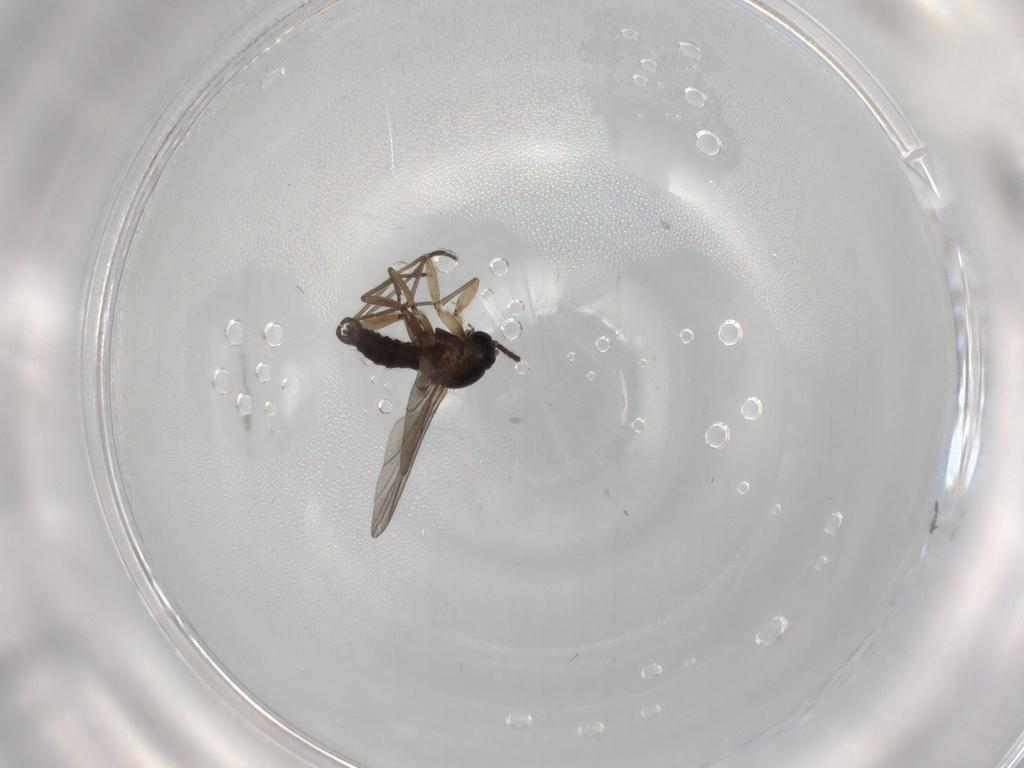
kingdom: Animalia
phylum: Arthropoda
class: Insecta
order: Diptera
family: Sciaridae
